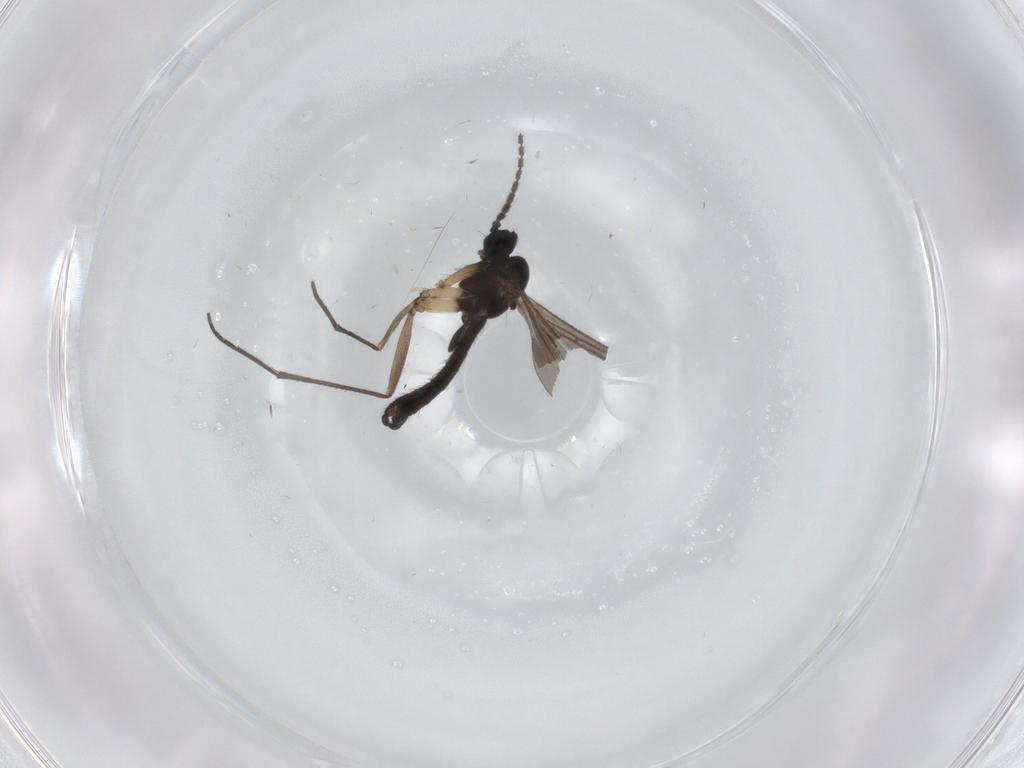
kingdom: Animalia
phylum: Arthropoda
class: Insecta
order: Diptera
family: Sciaridae
